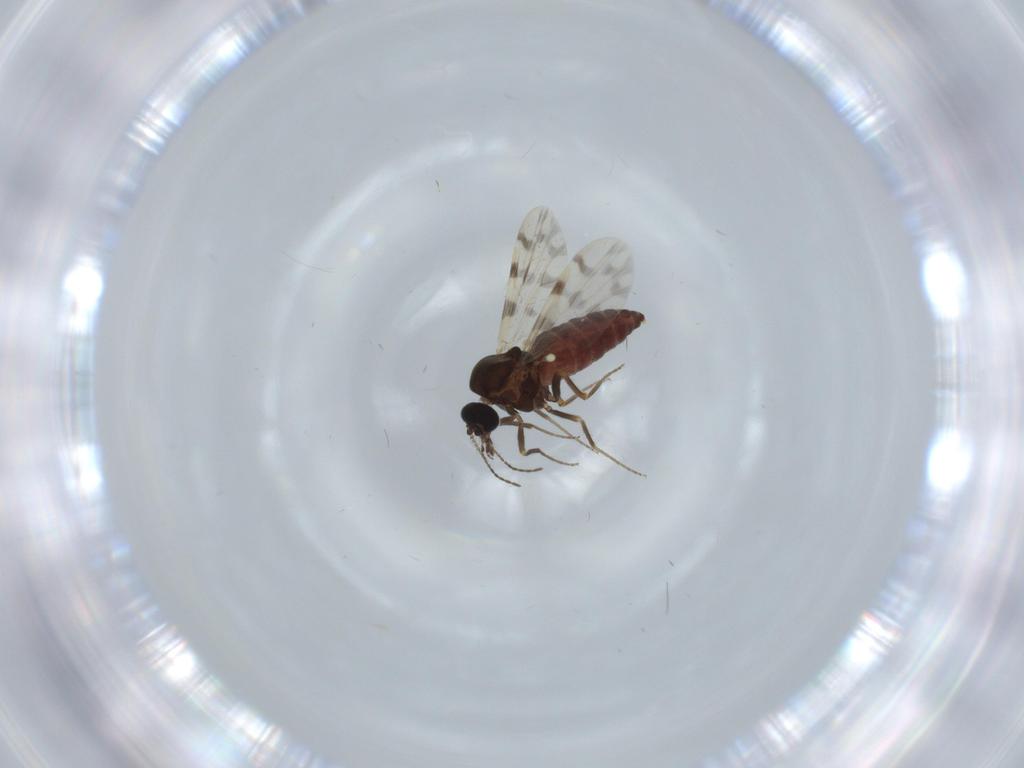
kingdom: Animalia
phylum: Arthropoda
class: Insecta
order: Diptera
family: Ceratopogonidae
